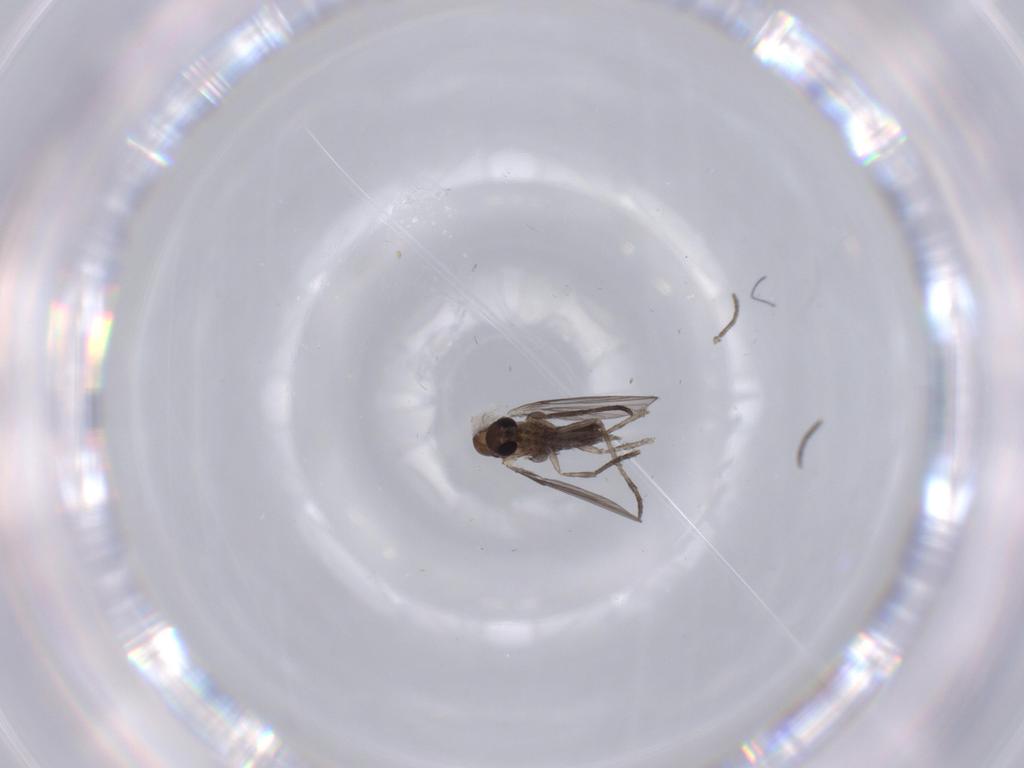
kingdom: Animalia
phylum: Arthropoda
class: Insecta
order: Diptera
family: Psychodidae
